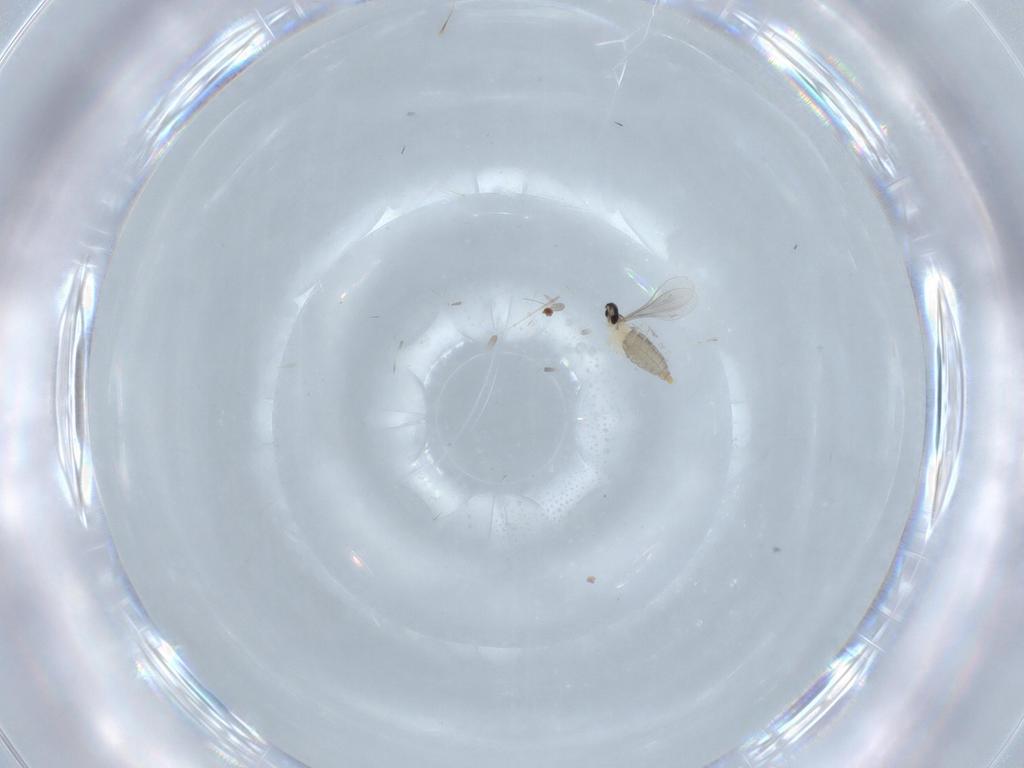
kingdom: Animalia
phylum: Arthropoda
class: Insecta
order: Diptera
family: Cecidomyiidae
